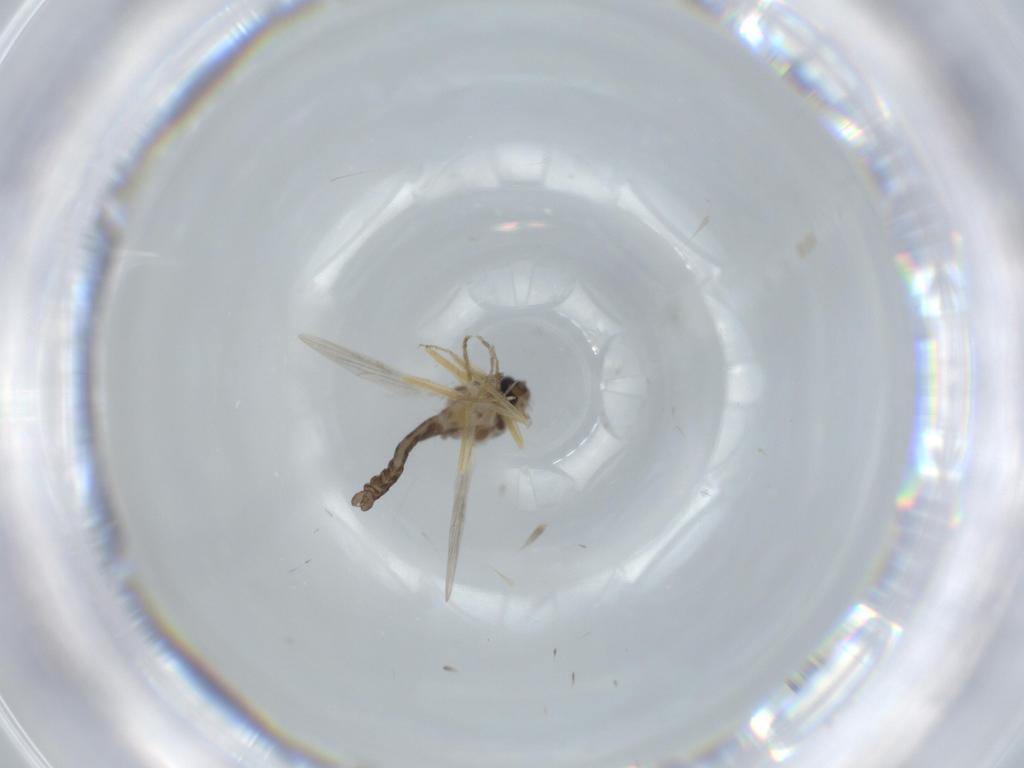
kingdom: Animalia
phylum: Arthropoda
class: Insecta
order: Diptera
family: Ceratopogonidae
